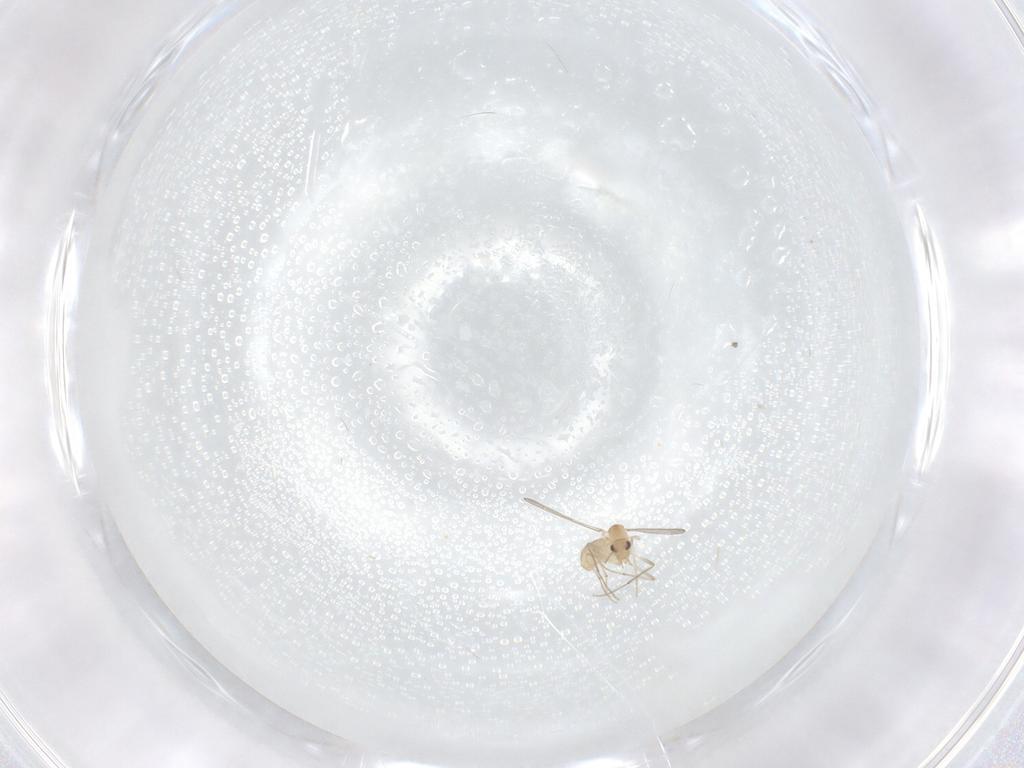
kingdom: Animalia
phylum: Arthropoda
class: Insecta
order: Diptera
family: Chironomidae
